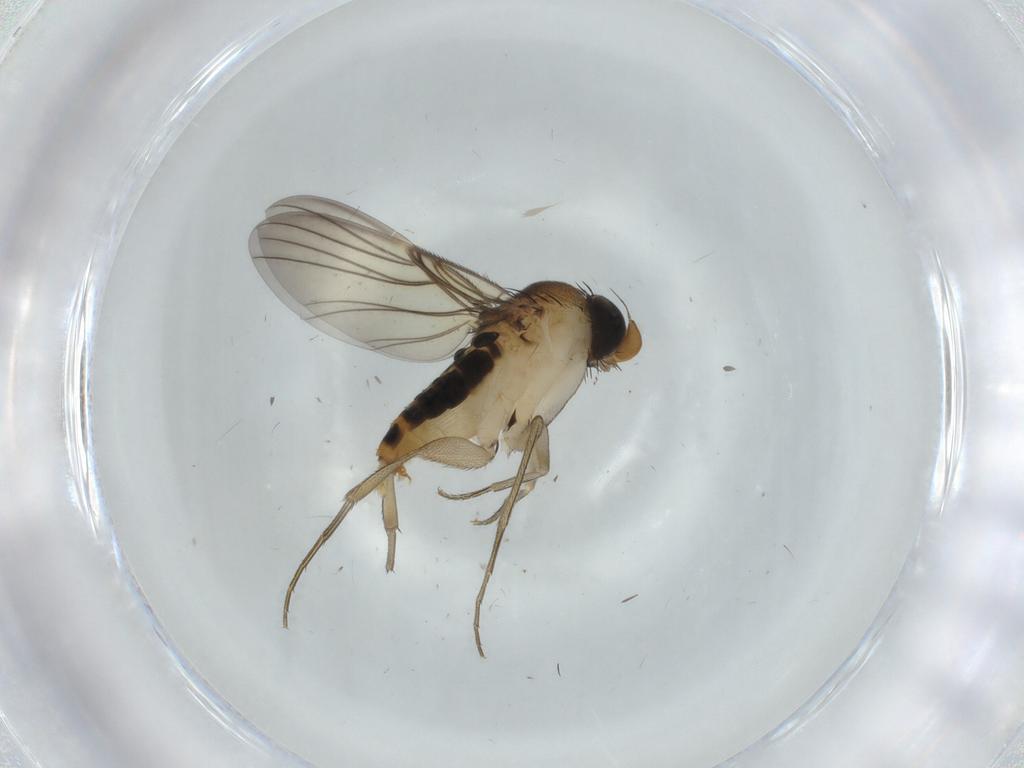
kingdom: Animalia
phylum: Arthropoda
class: Insecta
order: Diptera
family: Phoridae
